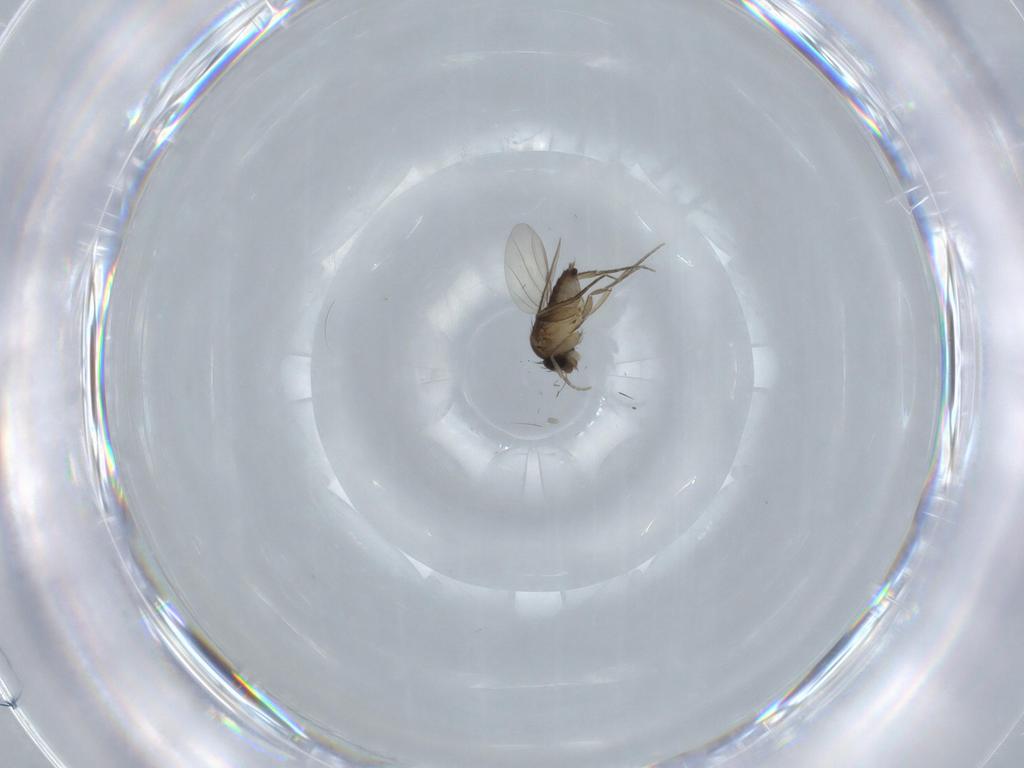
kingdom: Animalia
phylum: Arthropoda
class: Insecta
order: Diptera
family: Phoridae
